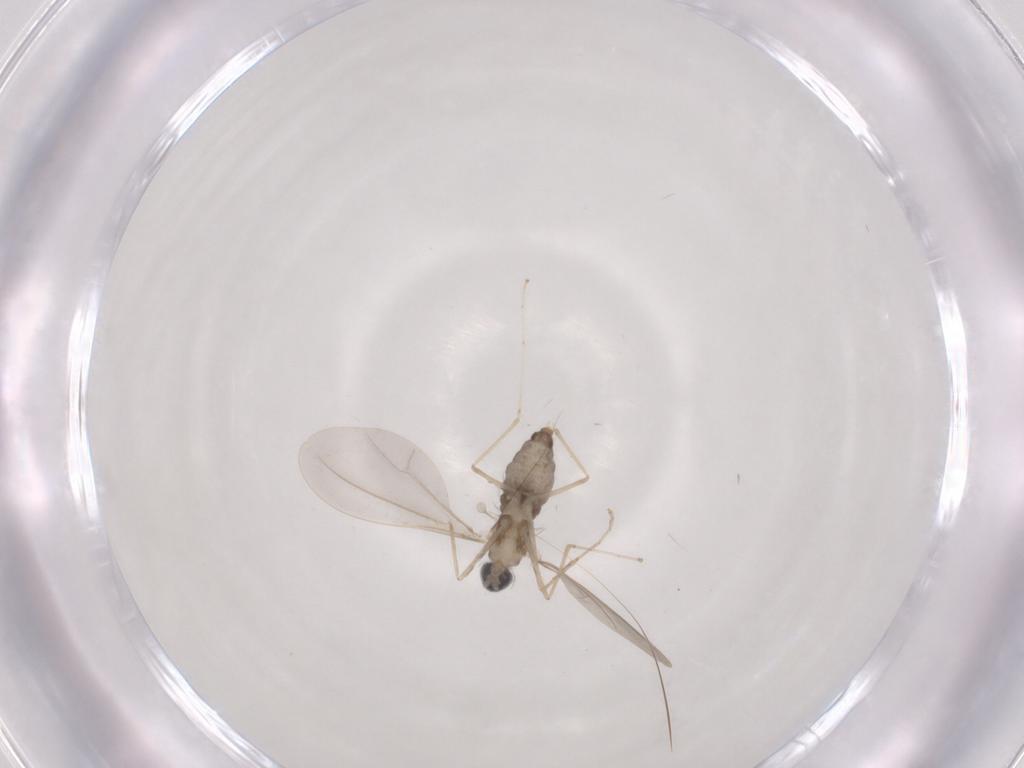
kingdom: Animalia
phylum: Arthropoda
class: Insecta
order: Diptera
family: Cecidomyiidae
